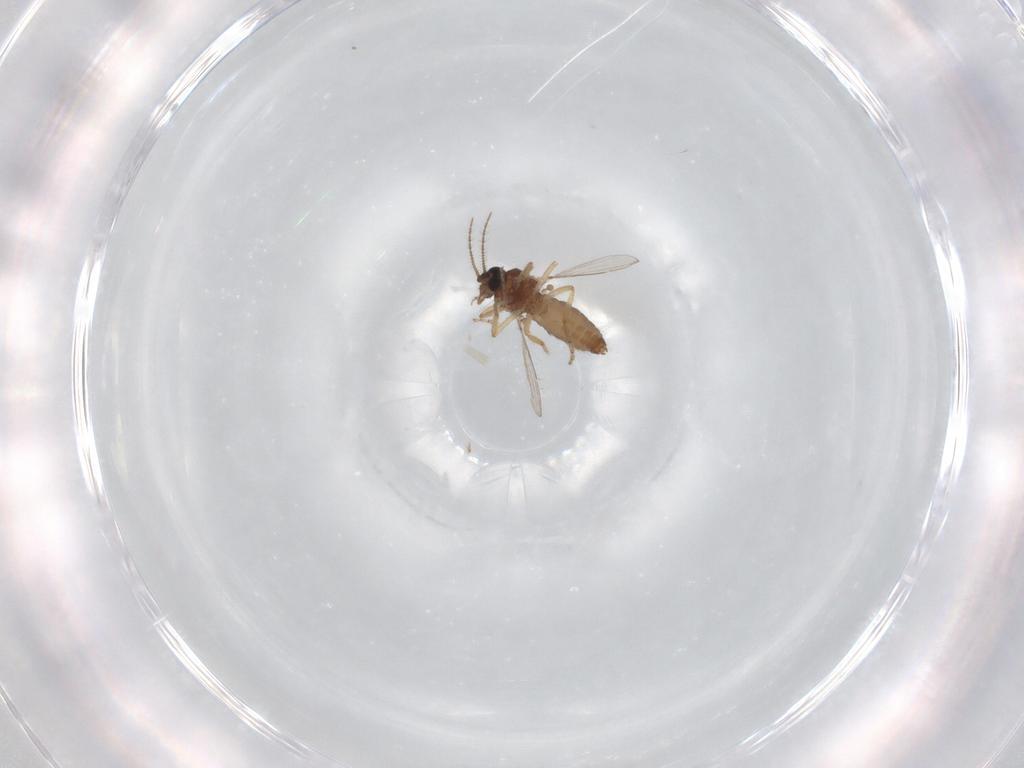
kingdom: Animalia
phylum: Arthropoda
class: Insecta
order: Diptera
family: Ceratopogonidae
